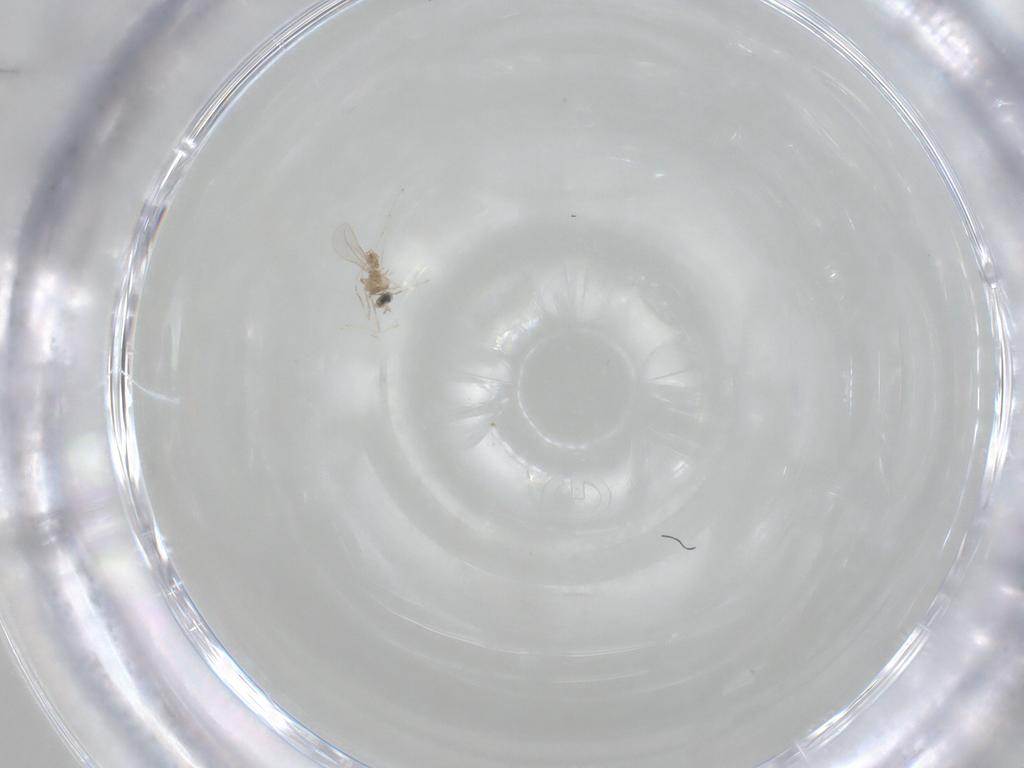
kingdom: Animalia
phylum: Arthropoda
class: Insecta
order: Diptera
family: Cecidomyiidae
